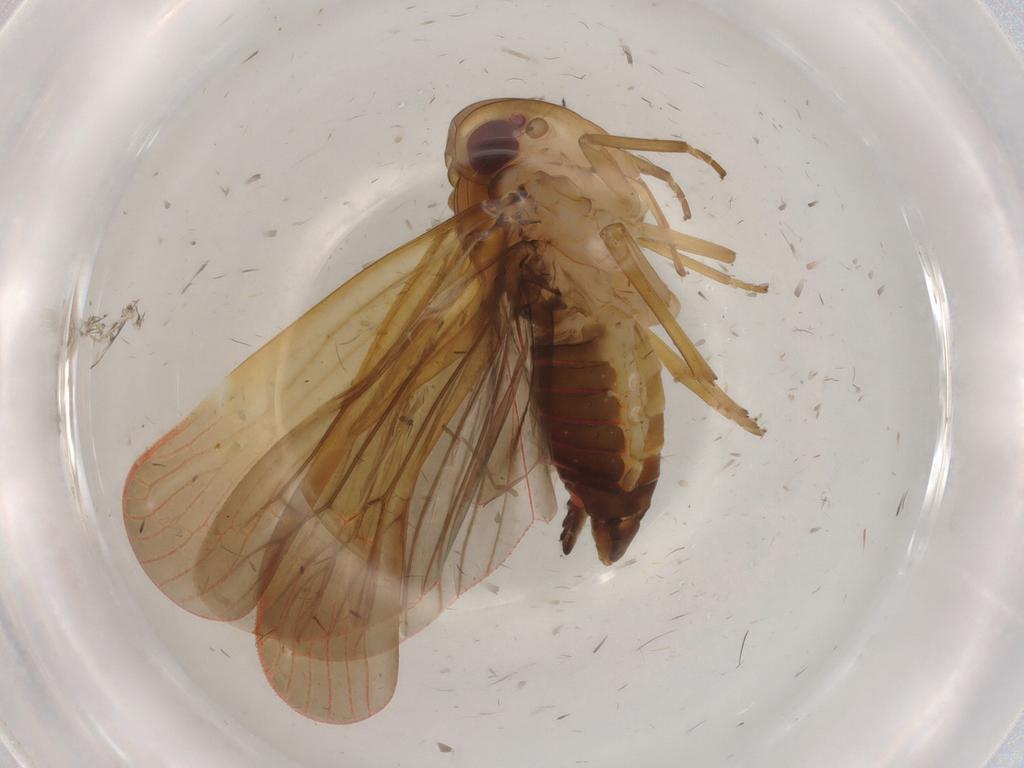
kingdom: Animalia
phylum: Arthropoda
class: Insecta
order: Hemiptera
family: Achilidae
